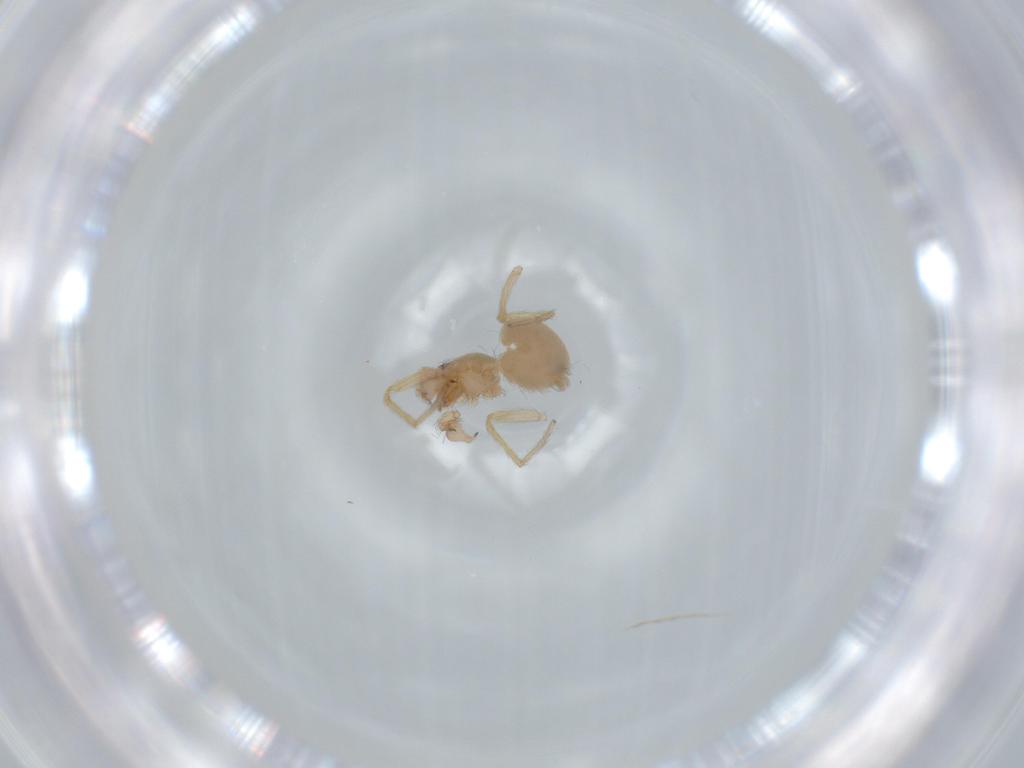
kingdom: Animalia
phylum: Arthropoda
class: Arachnida
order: Araneae
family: Oonopidae
